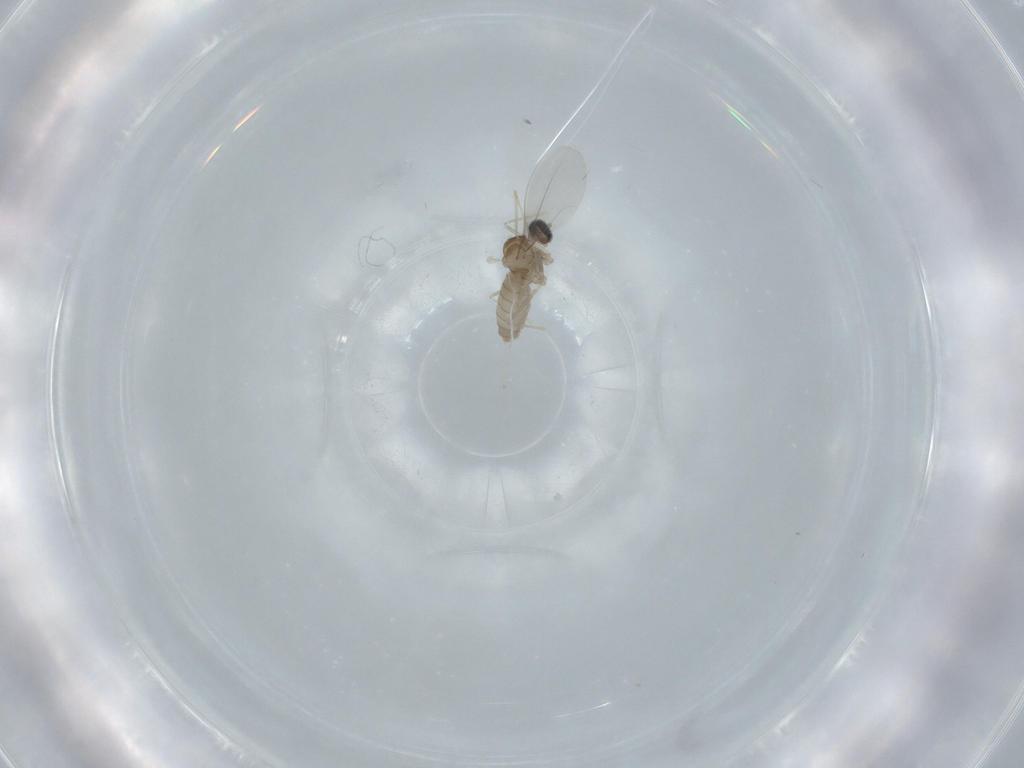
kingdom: Animalia
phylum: Arthropoda
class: Insecta
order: Diptera
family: Cecidomyiidae
